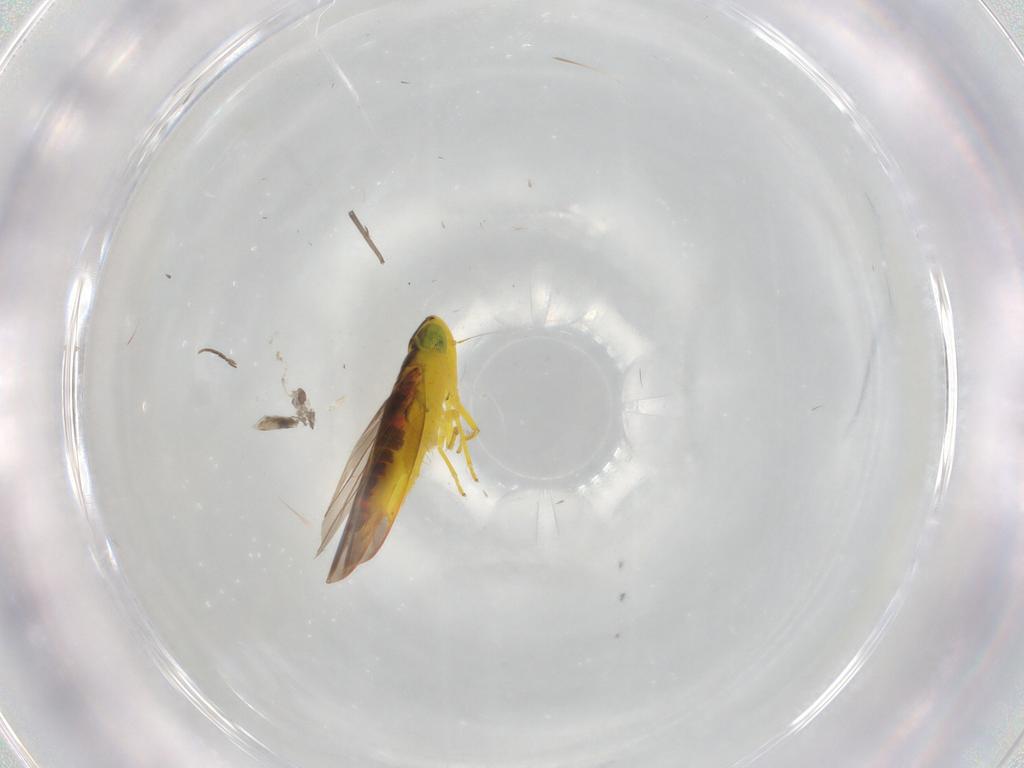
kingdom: Animalia
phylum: Arthropoda
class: Insecta
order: Hemiptera
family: Cicadellidae
